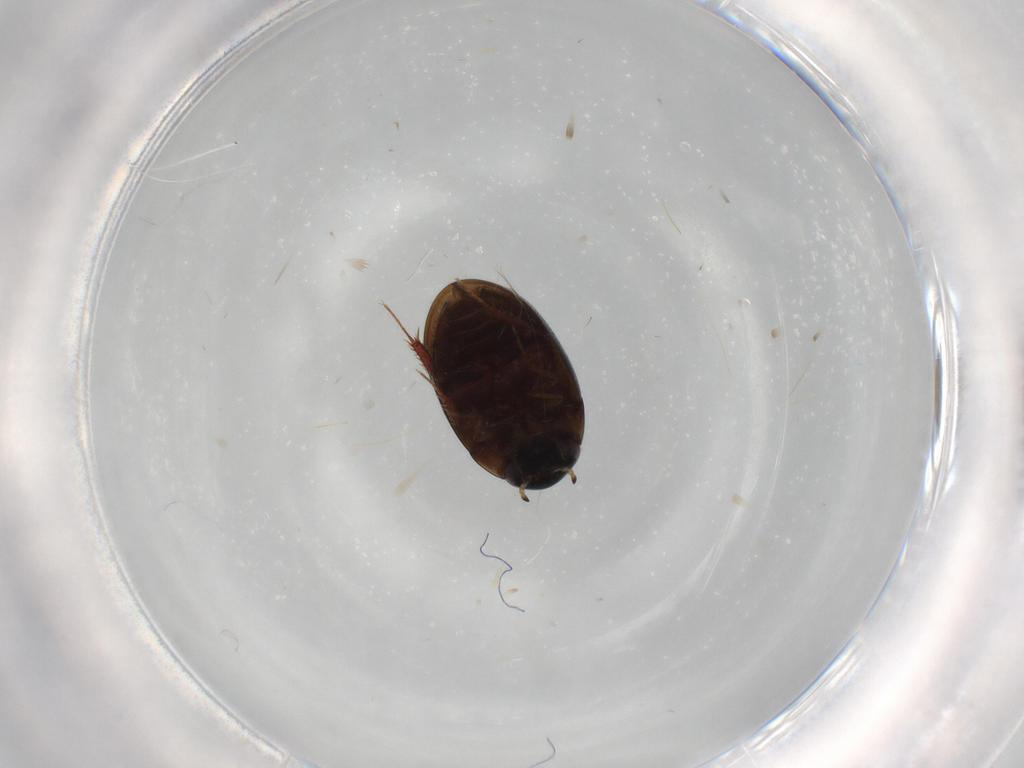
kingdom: Animalia
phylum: Arthropoda
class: Insecta
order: Coleoptera
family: Hydrophilidae
